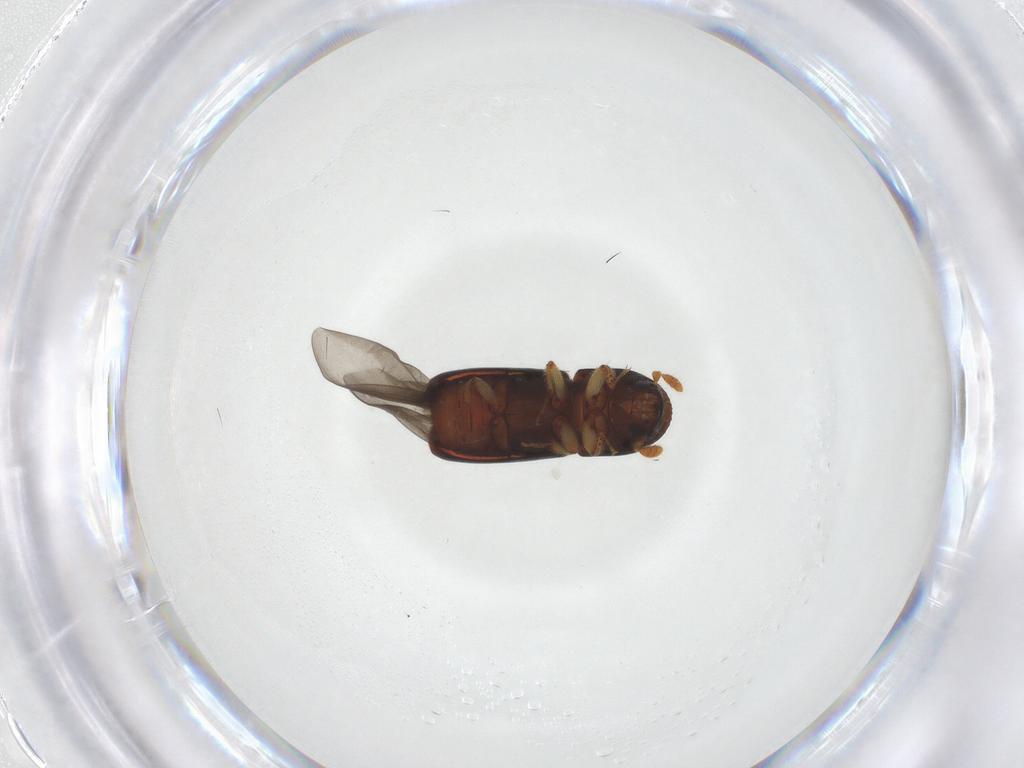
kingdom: Animalia
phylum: Arthropoda
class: Insecta
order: Coleoptera
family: Curculionidae
